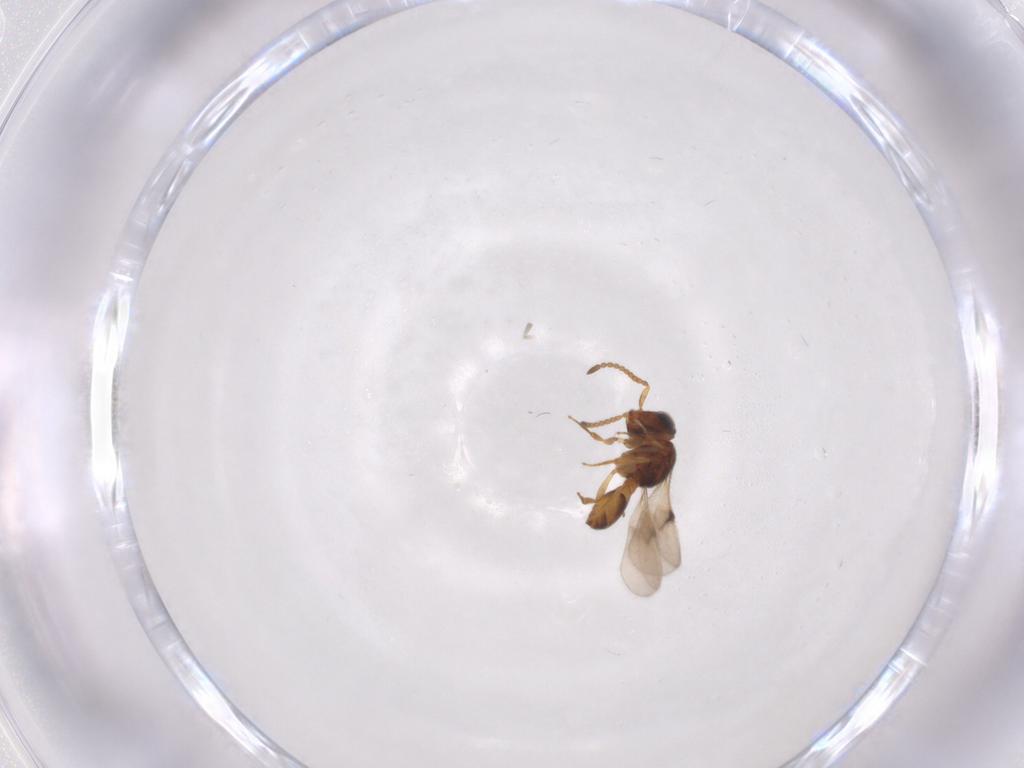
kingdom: Animalia
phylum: Arthropoda
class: Insecta
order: Hymenoptera
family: Scelionidae
